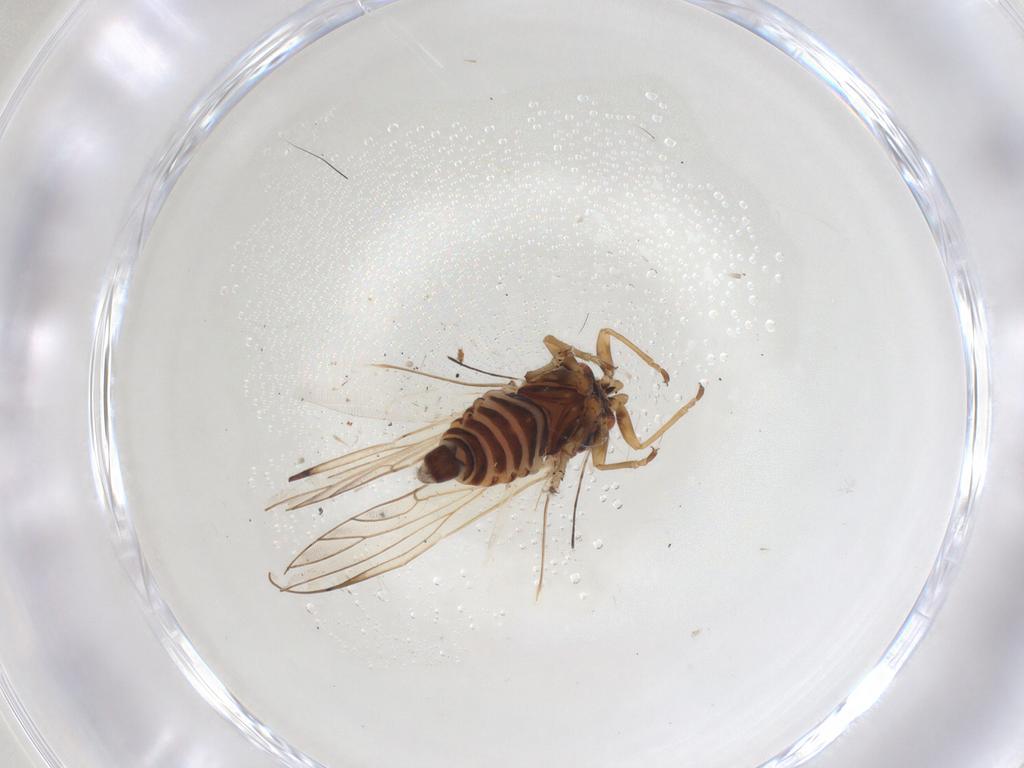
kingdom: Animalia
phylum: Arthropoda
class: Insecta
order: Hemiptera
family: Psyllidae
